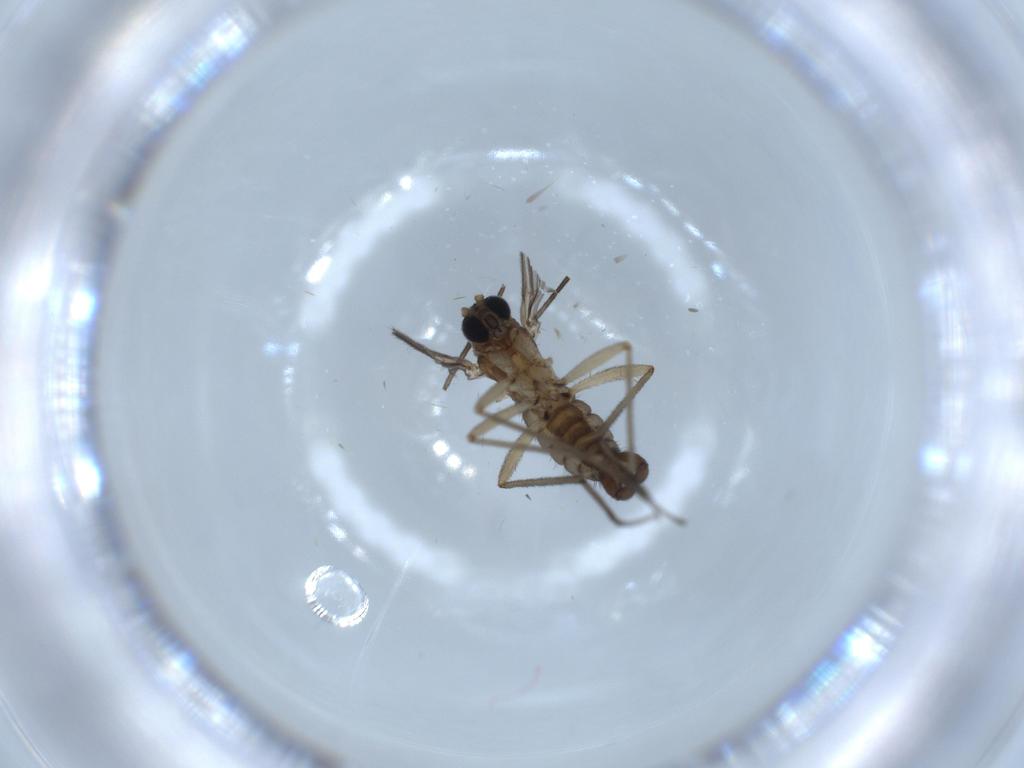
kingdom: Animalia
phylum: Arthropoda
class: Insecta
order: Diptera
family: Sciaridae
